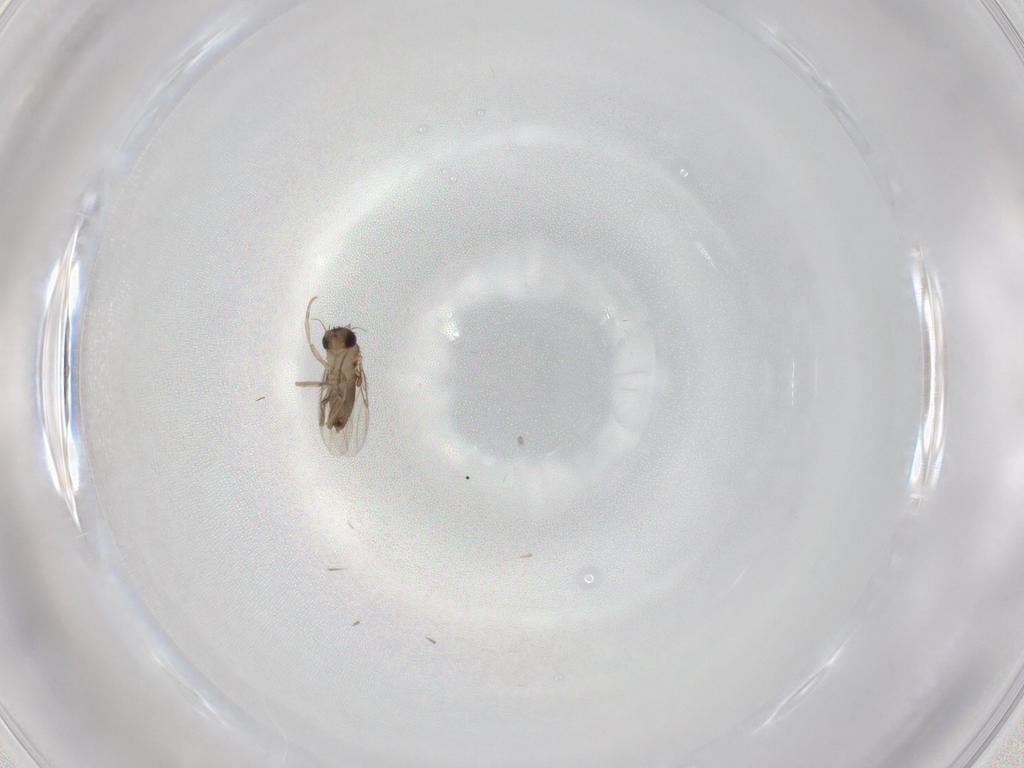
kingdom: Animalia
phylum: Arthropoda
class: Insecta
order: Diptera
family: Phoridae
